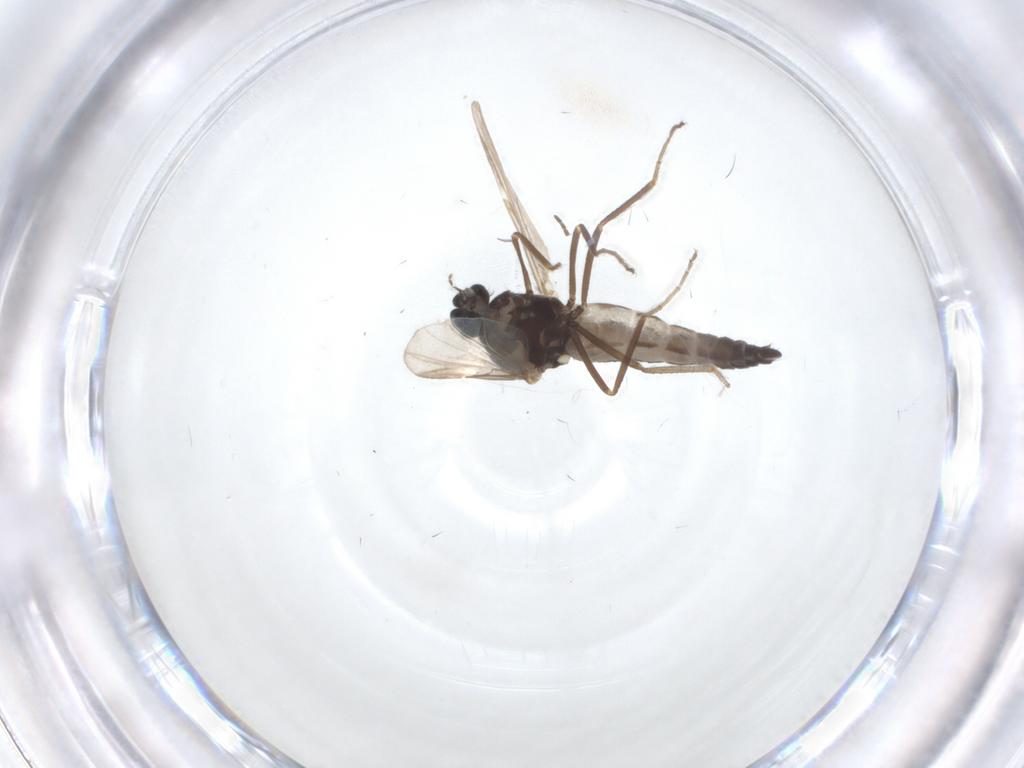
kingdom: Animalia
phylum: Arthropoda
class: Insecta
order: Diptera
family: Ceratopogonidae
